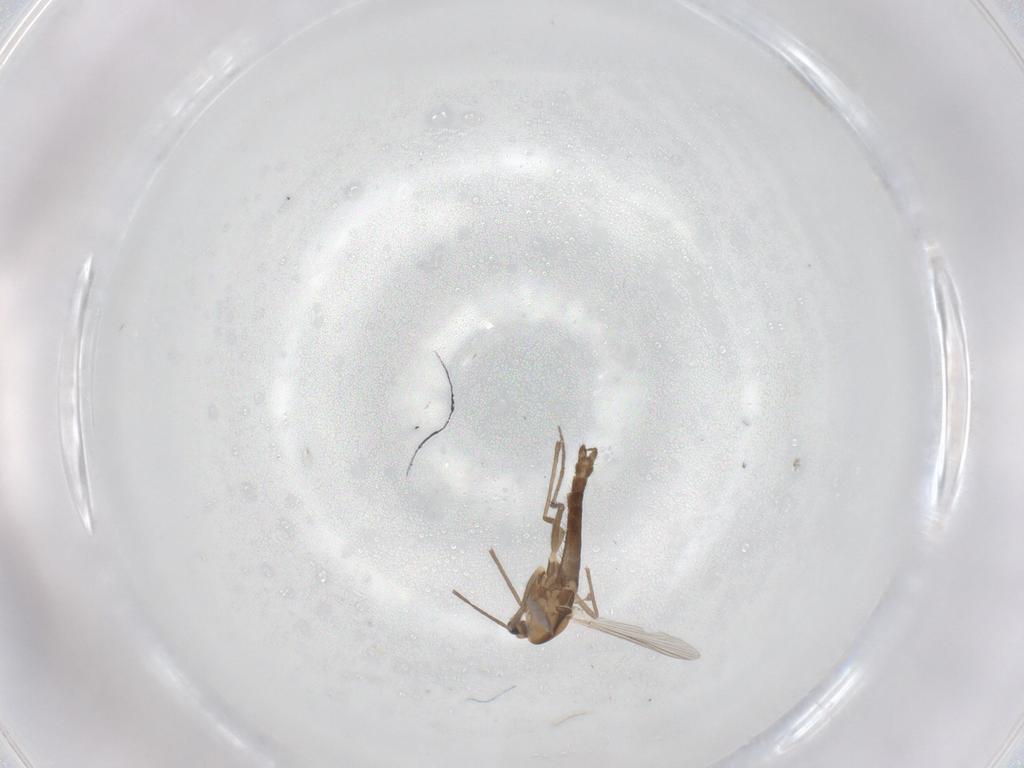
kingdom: Animalia
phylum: Arthropoda
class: Insecta
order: Diptera
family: Chironomidae
